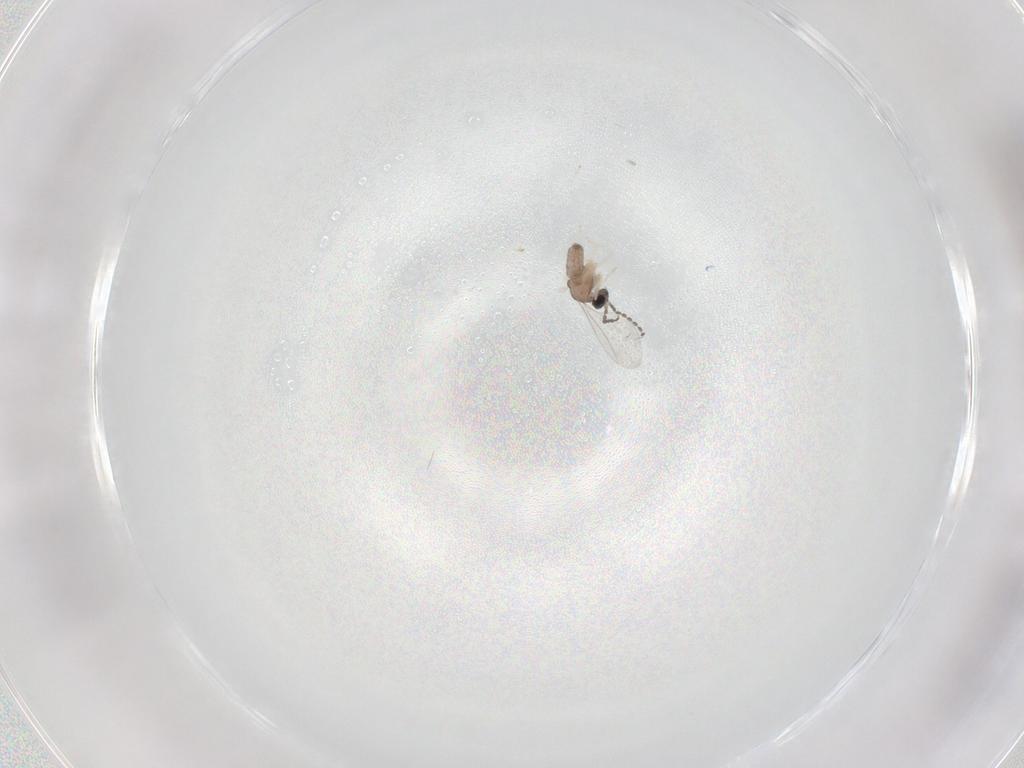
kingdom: Animalia
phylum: Arthropoda
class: Insecta
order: Diptera
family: Cecidomyiidae
